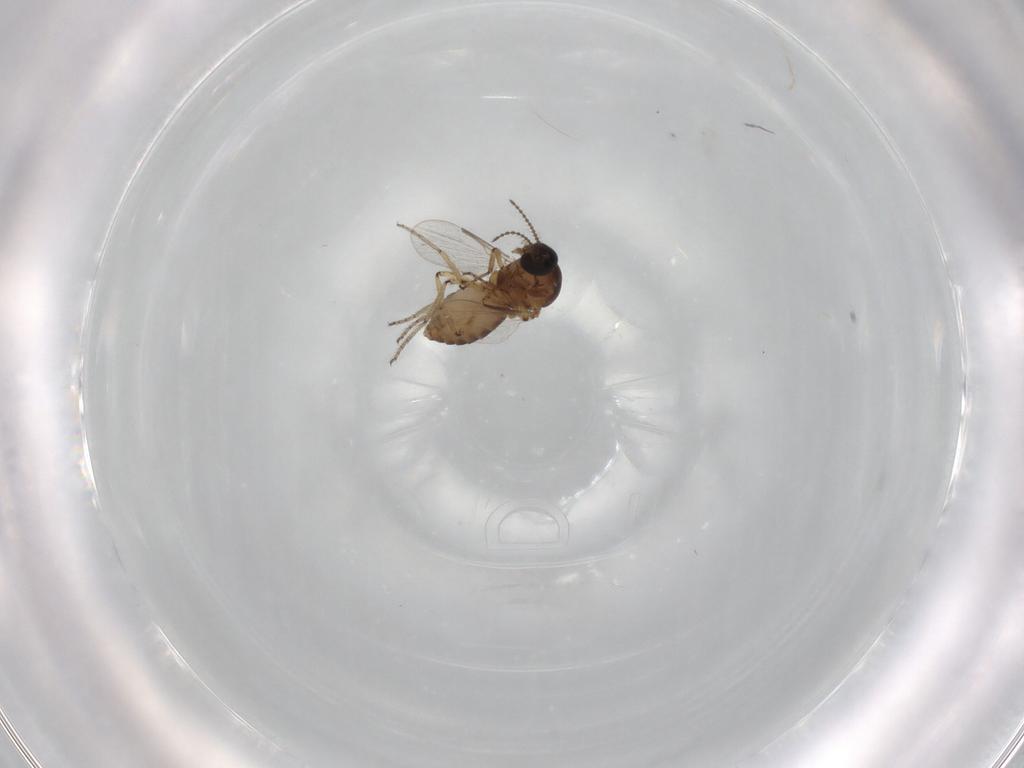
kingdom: Animalia
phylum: Arthropoda
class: Insecta
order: Diptera
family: Ceratopogonidae
